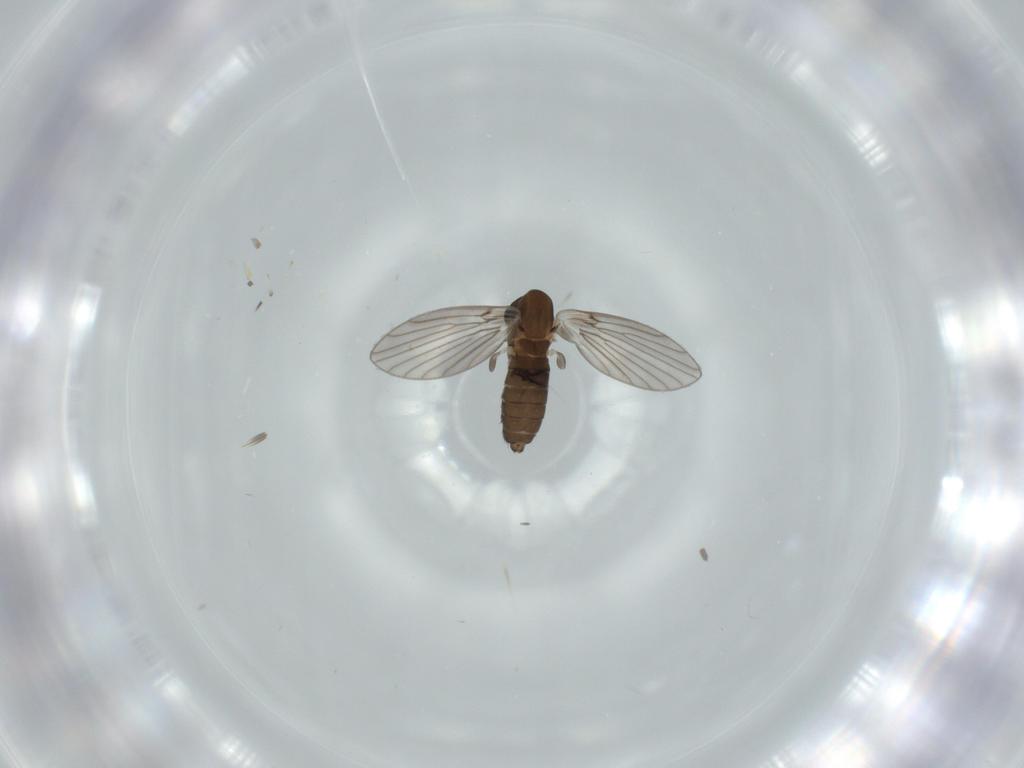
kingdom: Animalia
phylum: Arthropoda
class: Insecta
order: Diptera
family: Psychodidae
